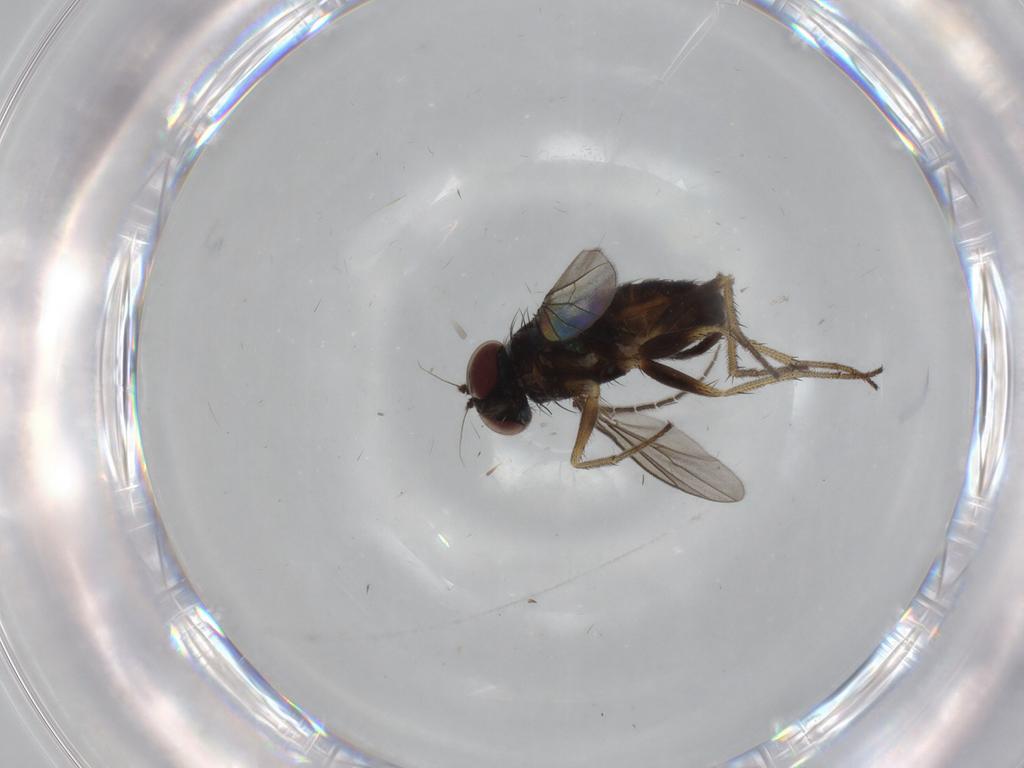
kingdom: Animalia
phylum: Arthropoda
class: Insecta
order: Diptera
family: Sciaridae
